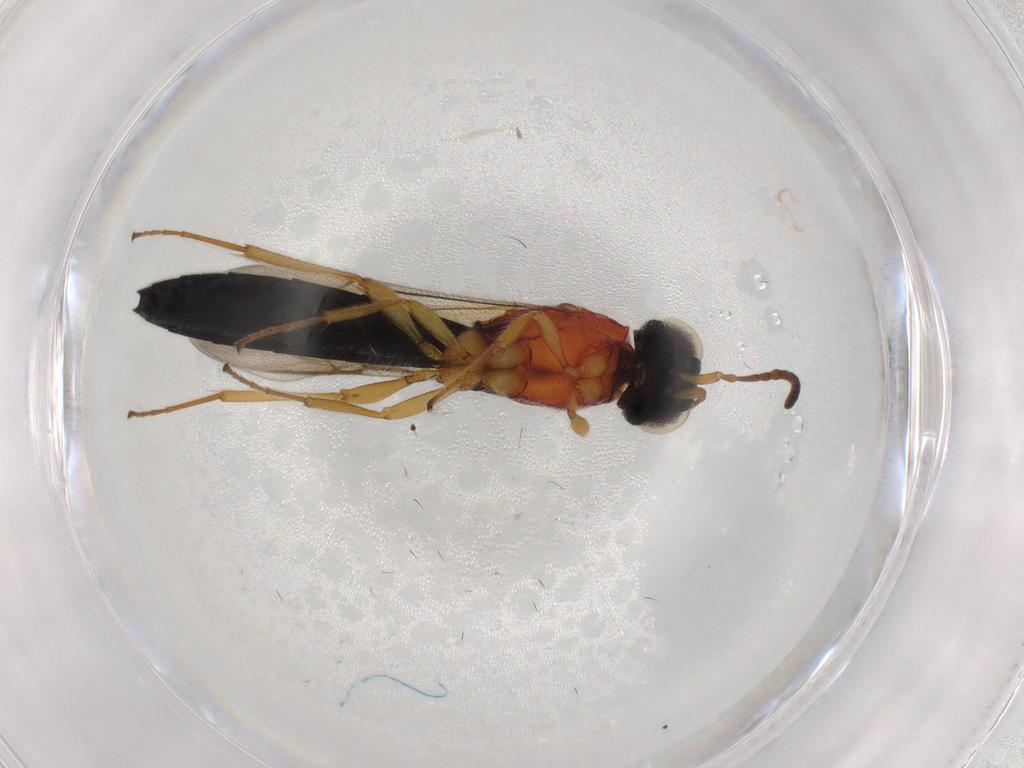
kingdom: Animalia
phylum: Arthropoda
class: Insecta
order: Hymenoptera
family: Scelionidae
